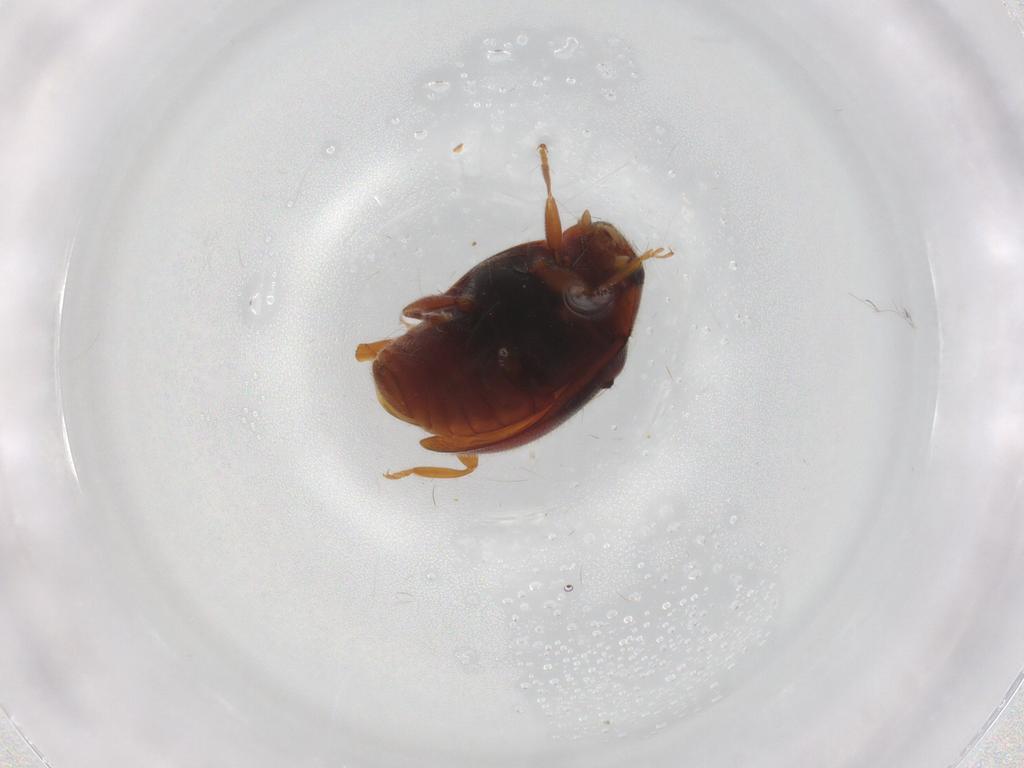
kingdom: Animalia
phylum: Arthropoda
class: Insecta
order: Coleoptera
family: Coccinellidae
